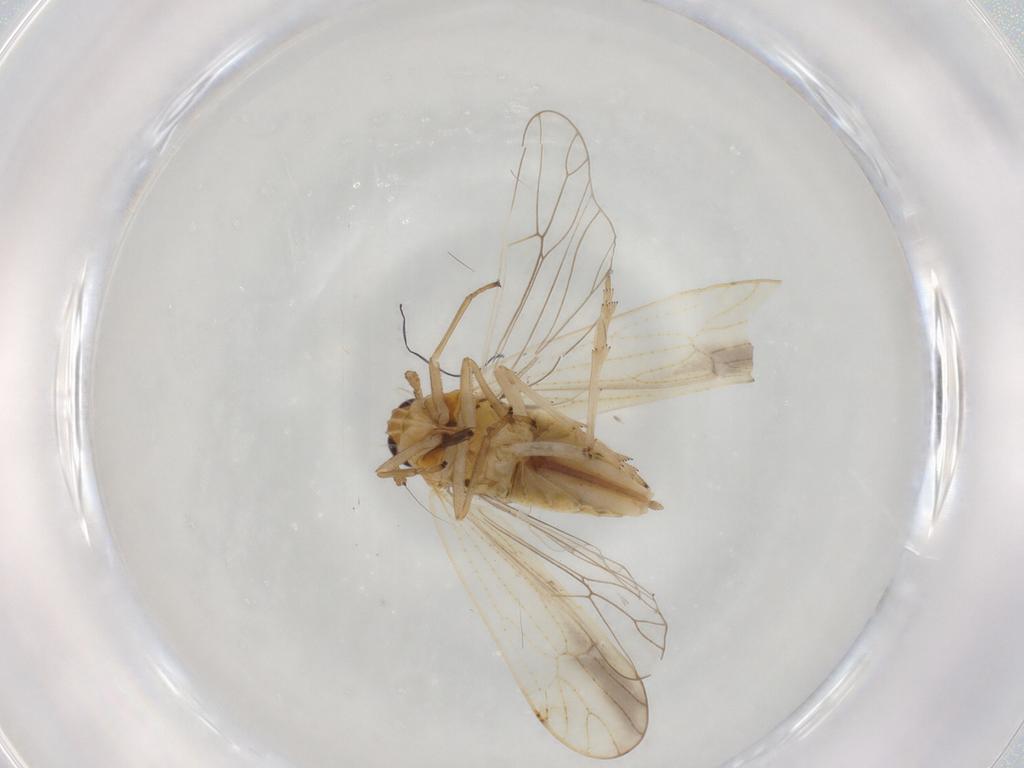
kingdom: Animalia
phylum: Arthropoda
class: Insecta
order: Hemiptera
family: Delphacidae
